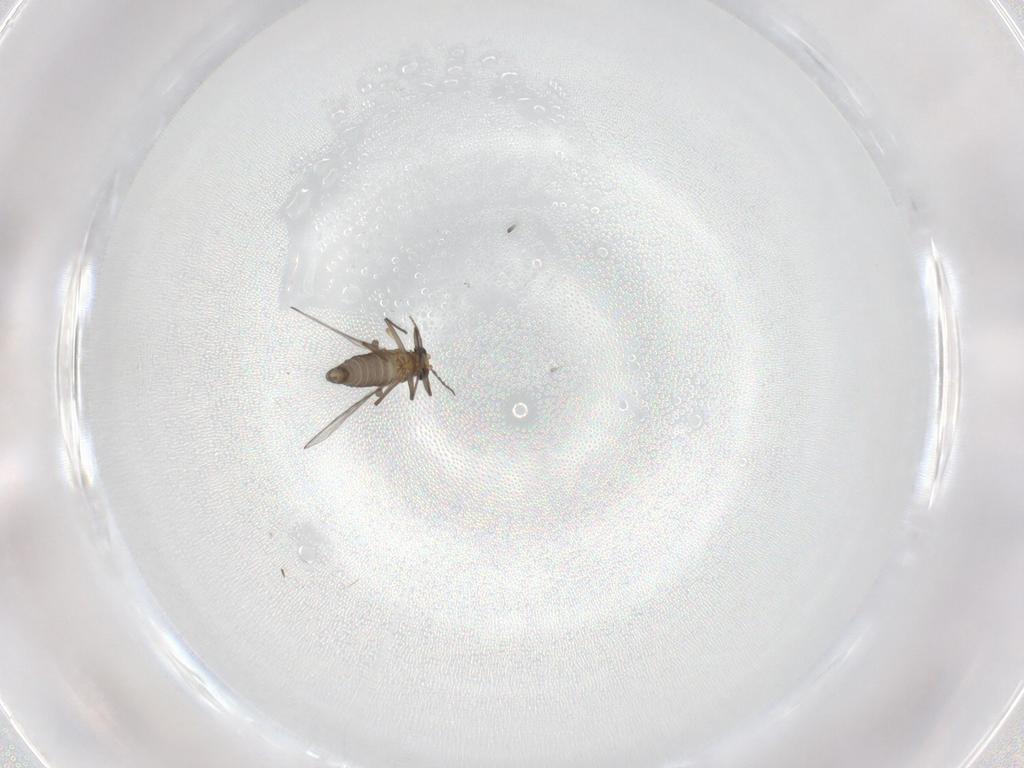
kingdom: Animalia
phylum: Arthropoda
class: Insecta
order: Diptera
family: Chironomidae
